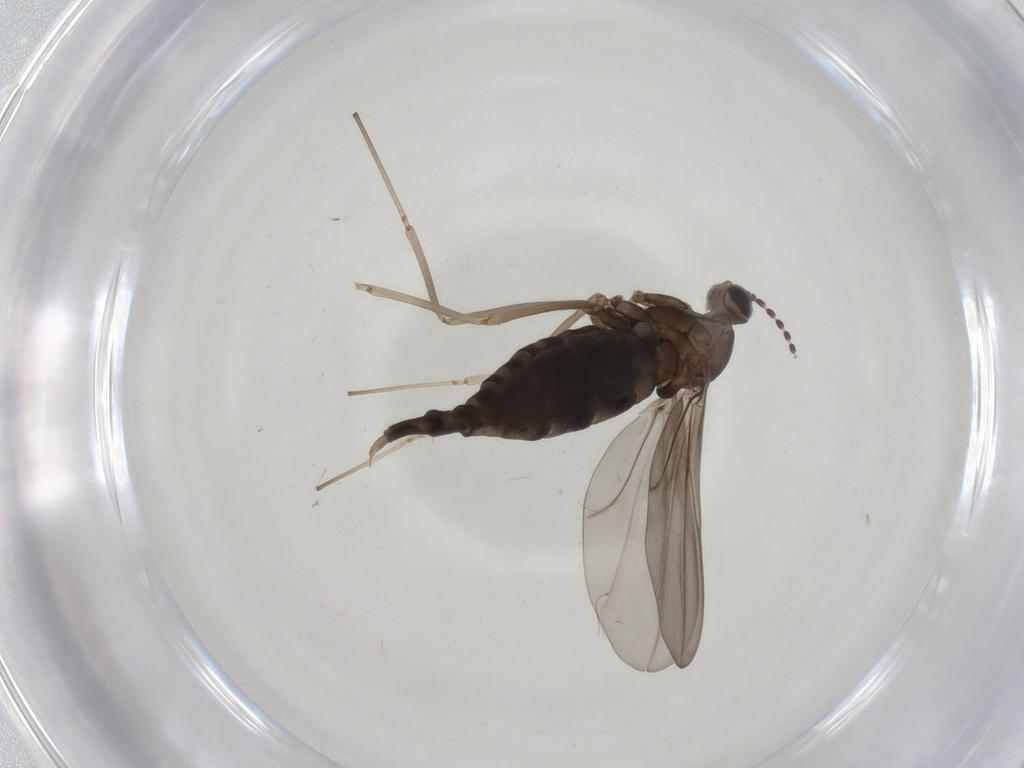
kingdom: Animalia
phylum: Arthropoda
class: Insecta
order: Diptera
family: Cecidomyiidae
